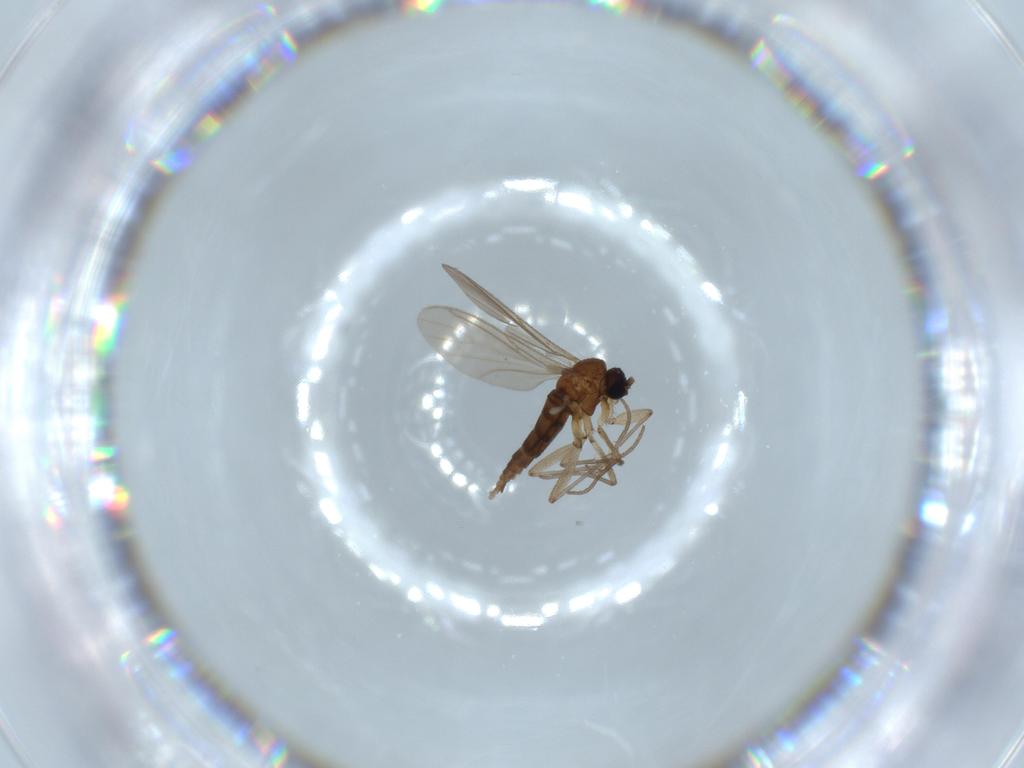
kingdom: Animalia
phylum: Arthropoda
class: Insecta
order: Diptera
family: Sciaridae
